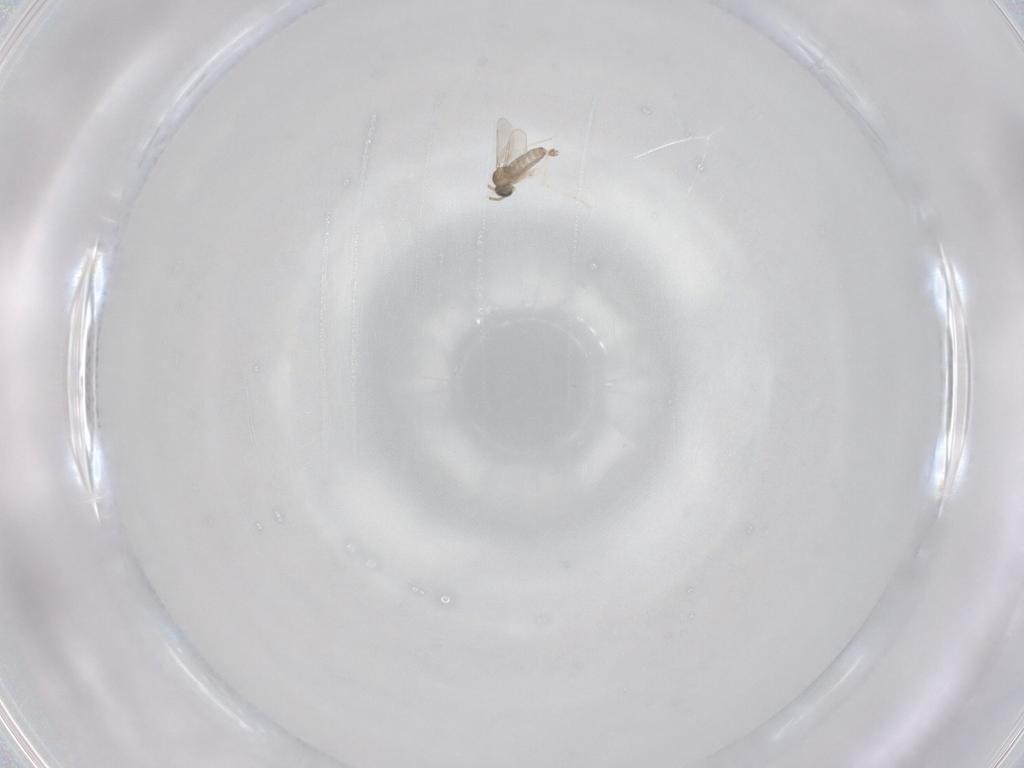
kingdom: Animalia
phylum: Arthropoda
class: Insecta
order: Diptera
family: Cecidomyiidae
